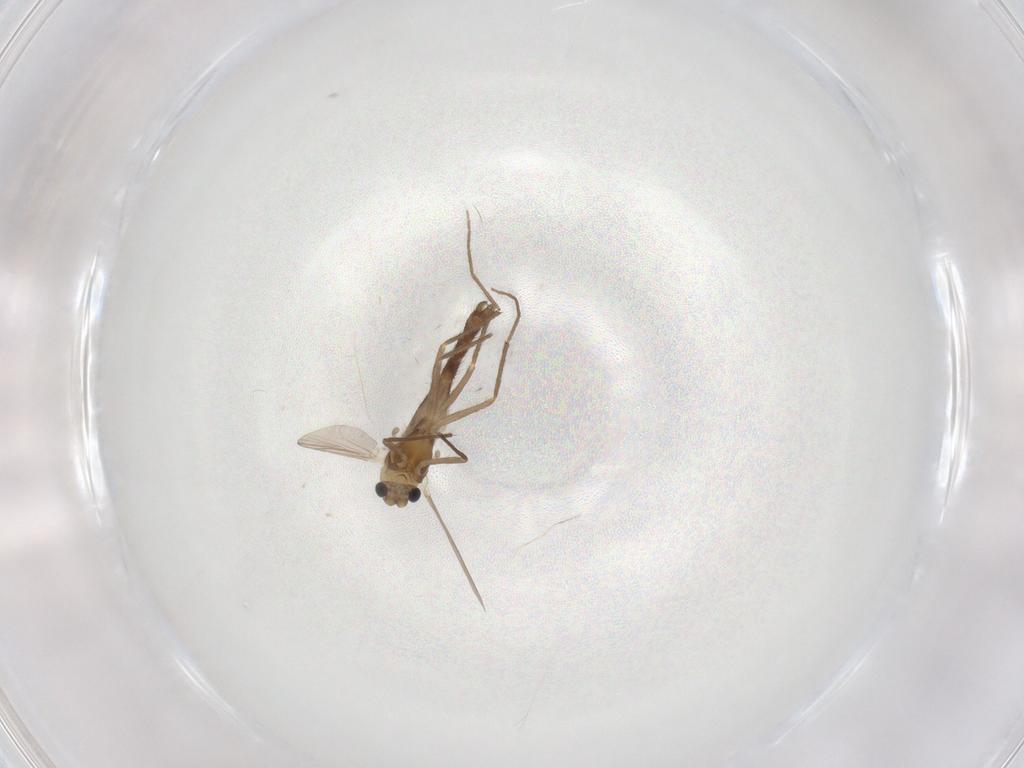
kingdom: Animalia
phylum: Arthropoda
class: Insecta
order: Diptera
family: Chironomidae
